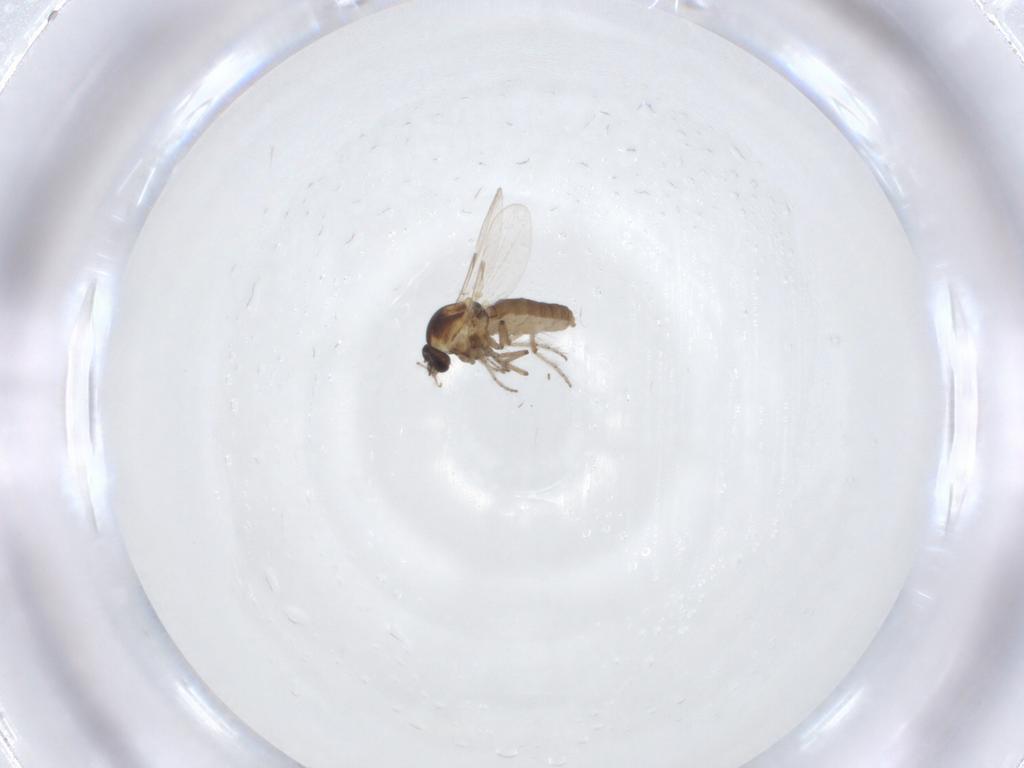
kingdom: Animalia
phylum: Arthropoda
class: Insecta
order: Diptera
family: Ceratopogonidae
